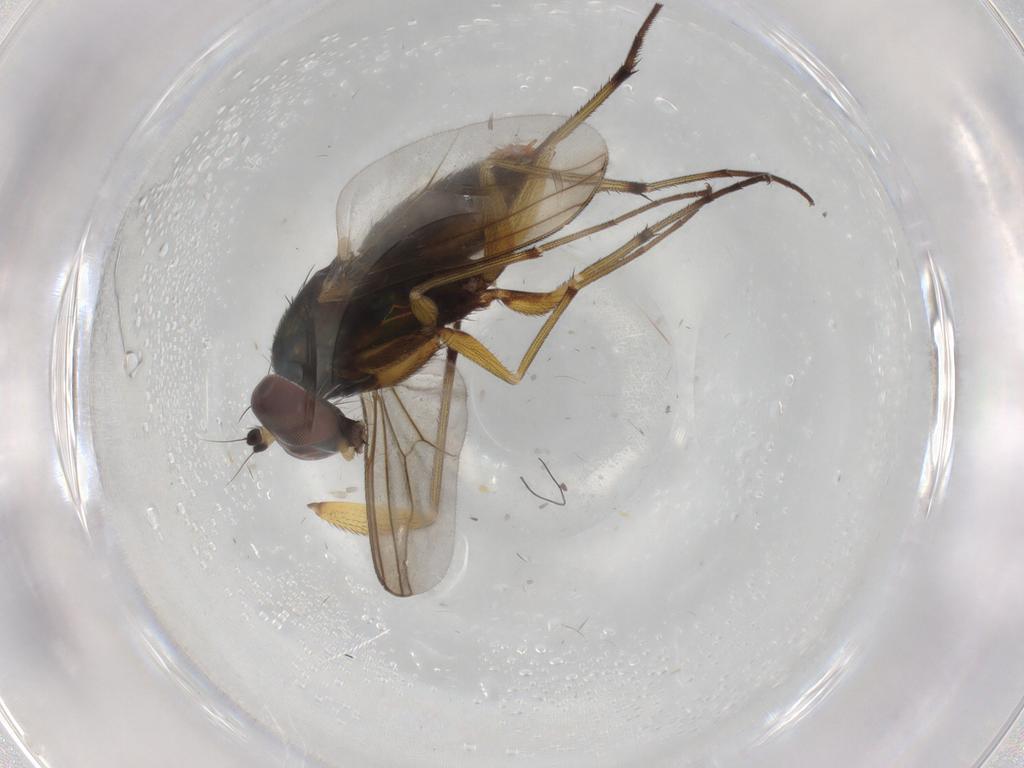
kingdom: Animalia
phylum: Arthropoda
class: Insecta
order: Diptera
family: Dolichopodidae
